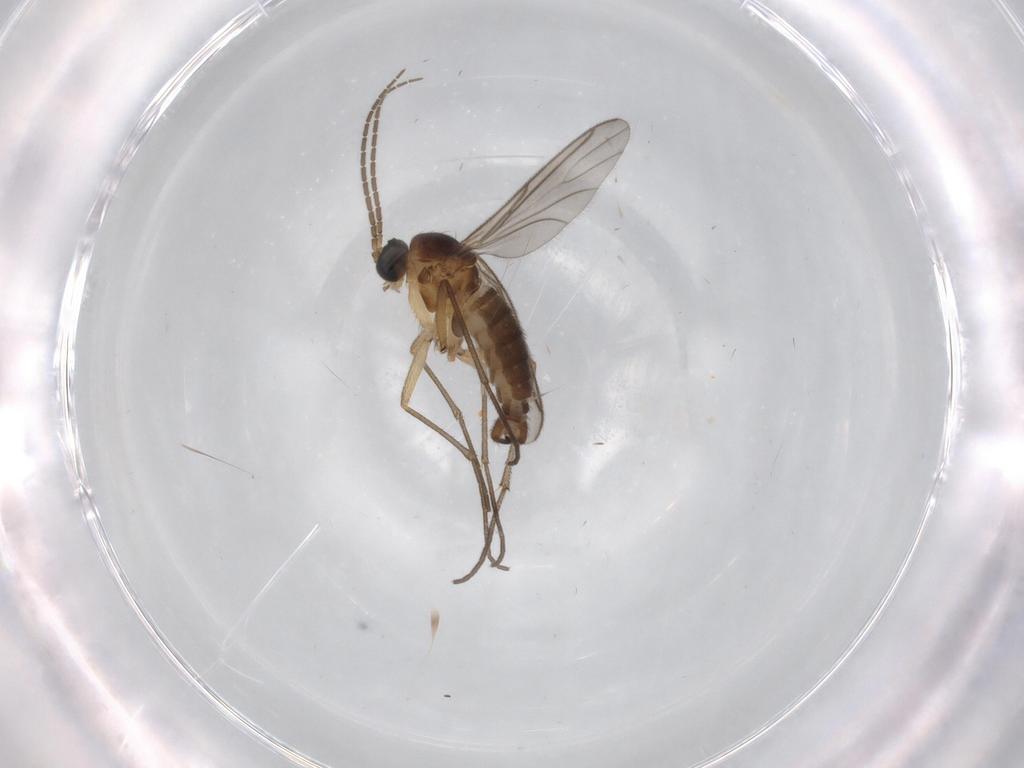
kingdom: Animalia
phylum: Arthropoda
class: Insecta
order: Diptera
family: Sciaridae
